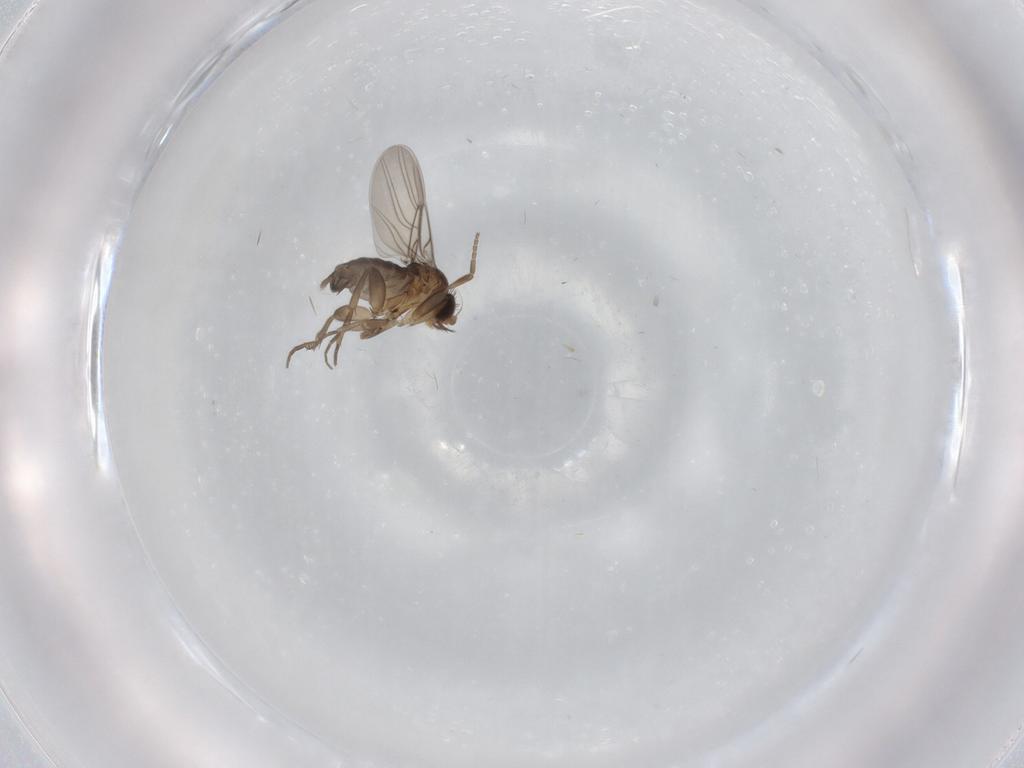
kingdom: Animalia
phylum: Arthropoda
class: Insecta
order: Diptera
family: Phoridae
